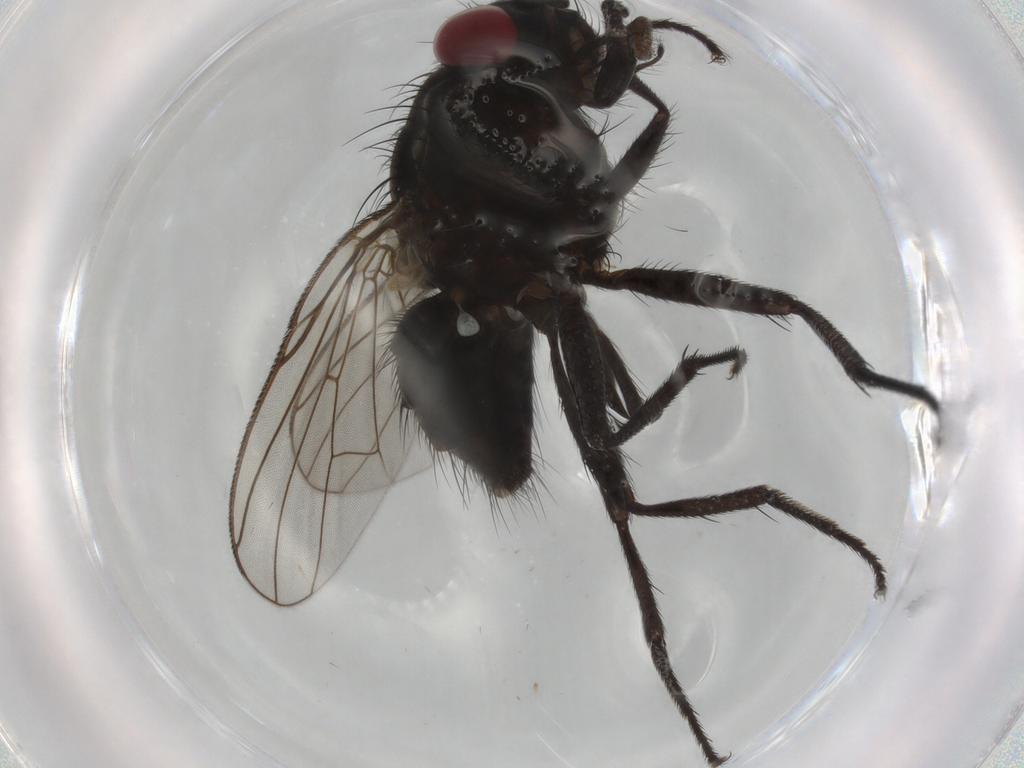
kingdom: Animalia
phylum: Arthropoda
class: Insecta
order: Diptera
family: Muscidae
